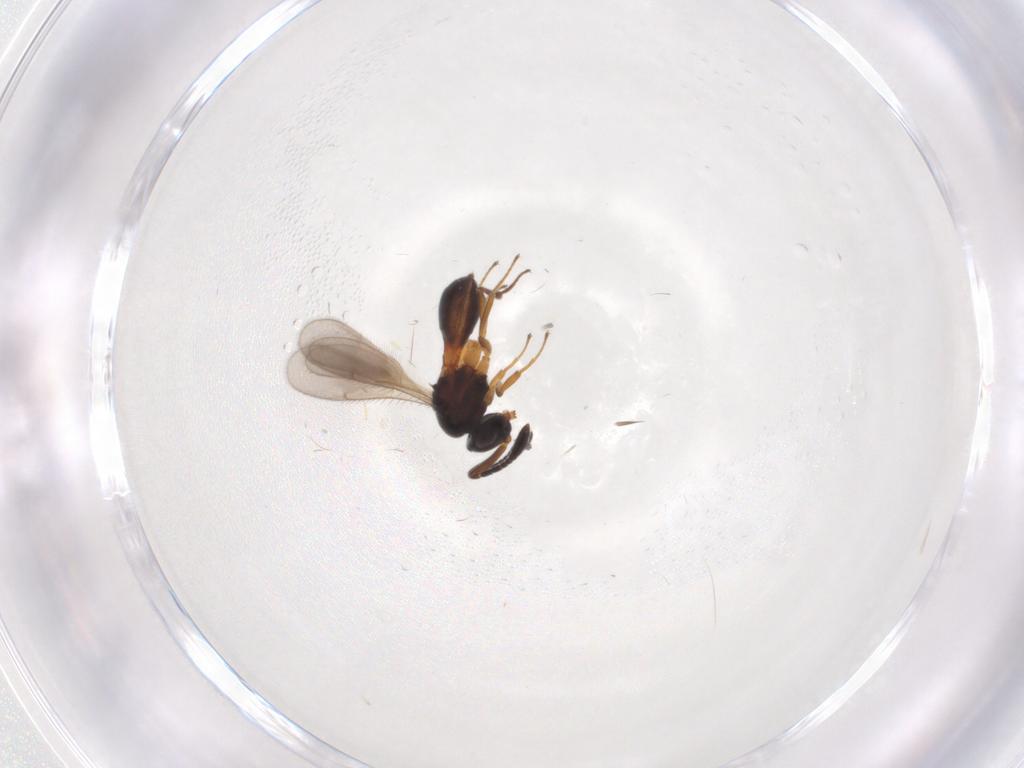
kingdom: Animalia
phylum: Arthropoda
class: Insecta
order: Hymenoptera
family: Scelionidae
